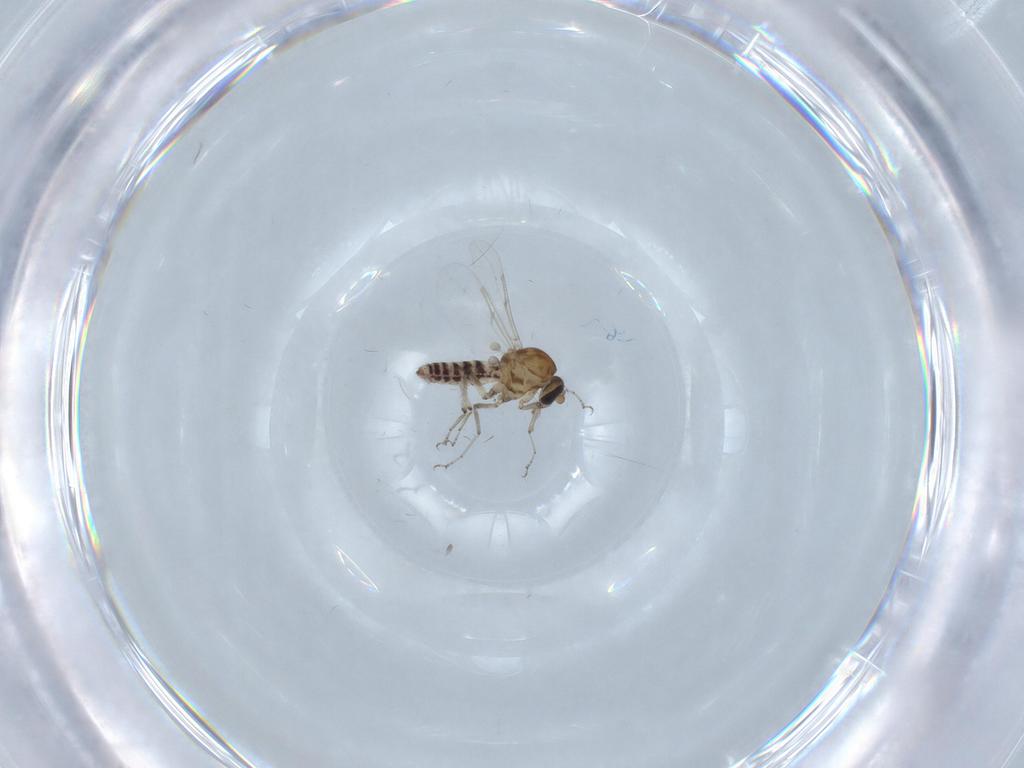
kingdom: Animalia
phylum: Arthropoda
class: Insecta
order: Diptera
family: Ceratopogonidae
